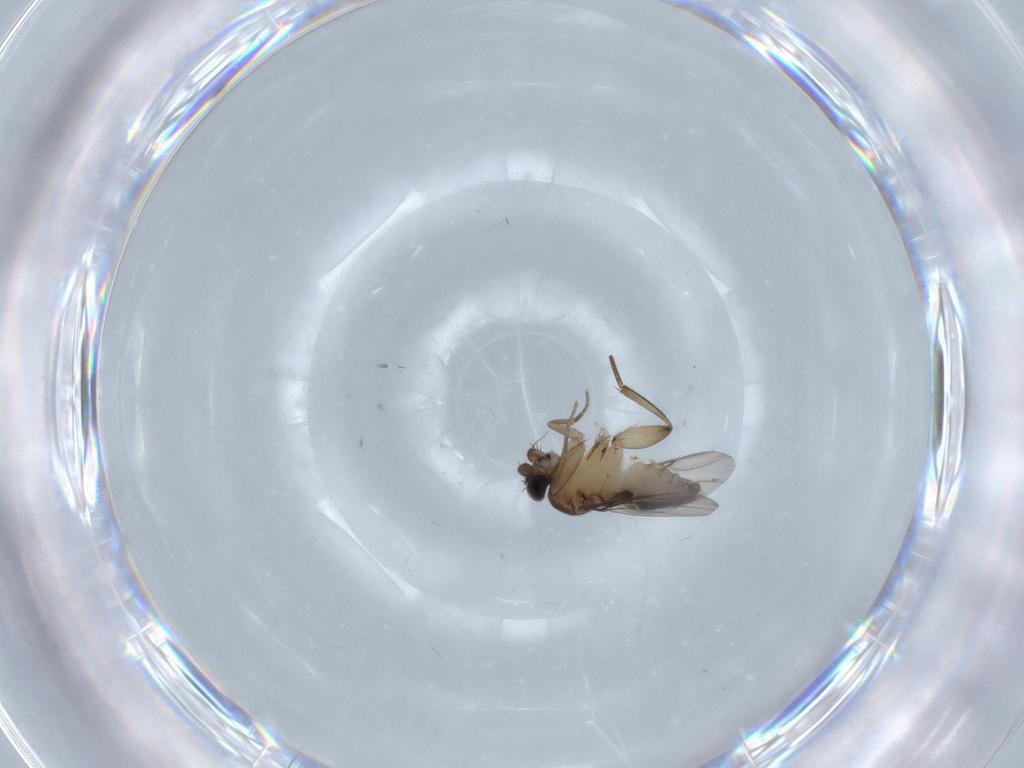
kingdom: Animalia
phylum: Arthropoda
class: Insecta
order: Diptera
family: Phoridae
